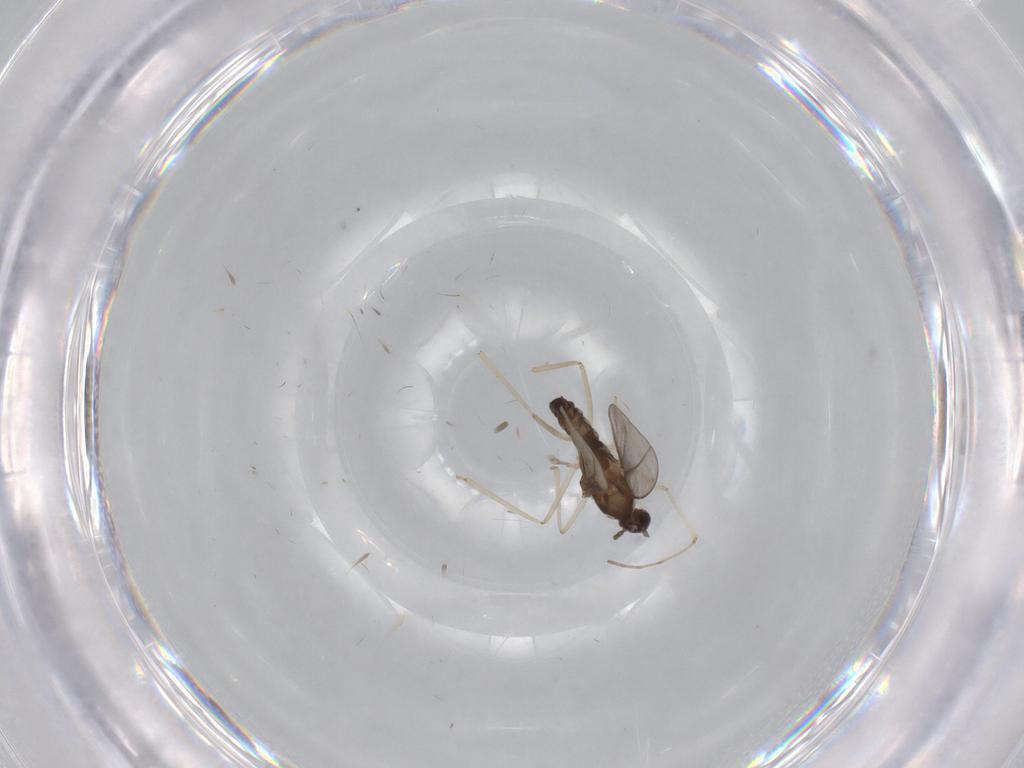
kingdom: Animalia
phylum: Arthropoda
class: Insecta
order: Diptera
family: Cecidomyiidae
